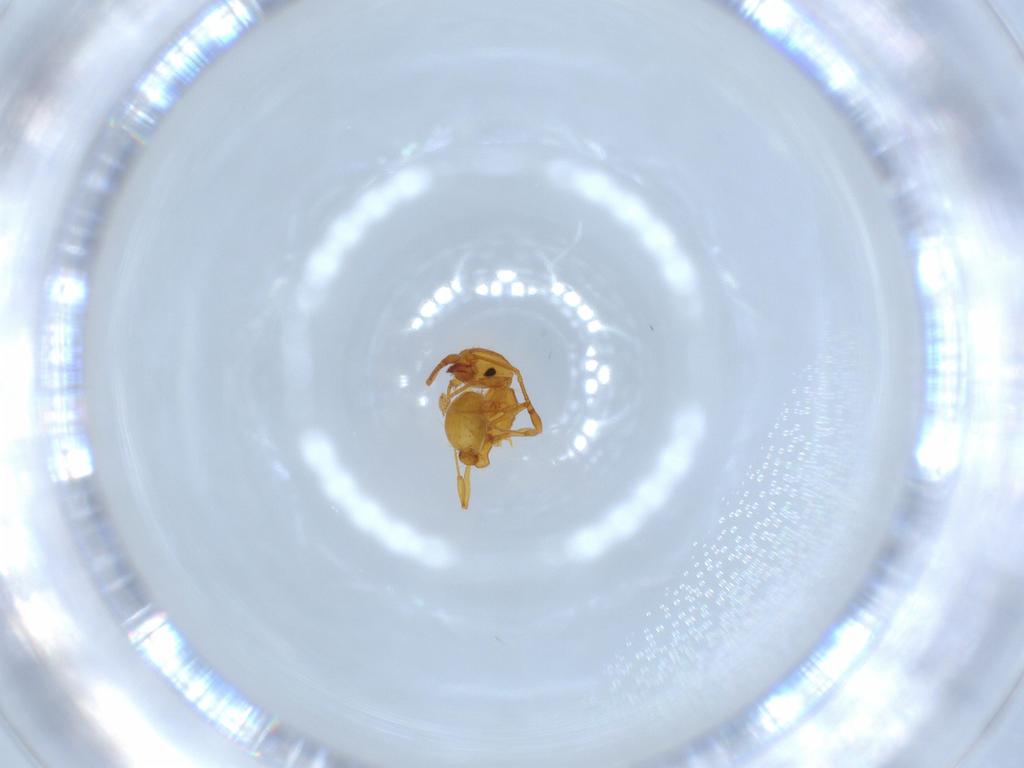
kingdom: Animalia
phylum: Arthropoda
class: Insecta
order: Hymenoptera
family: Formicidae
